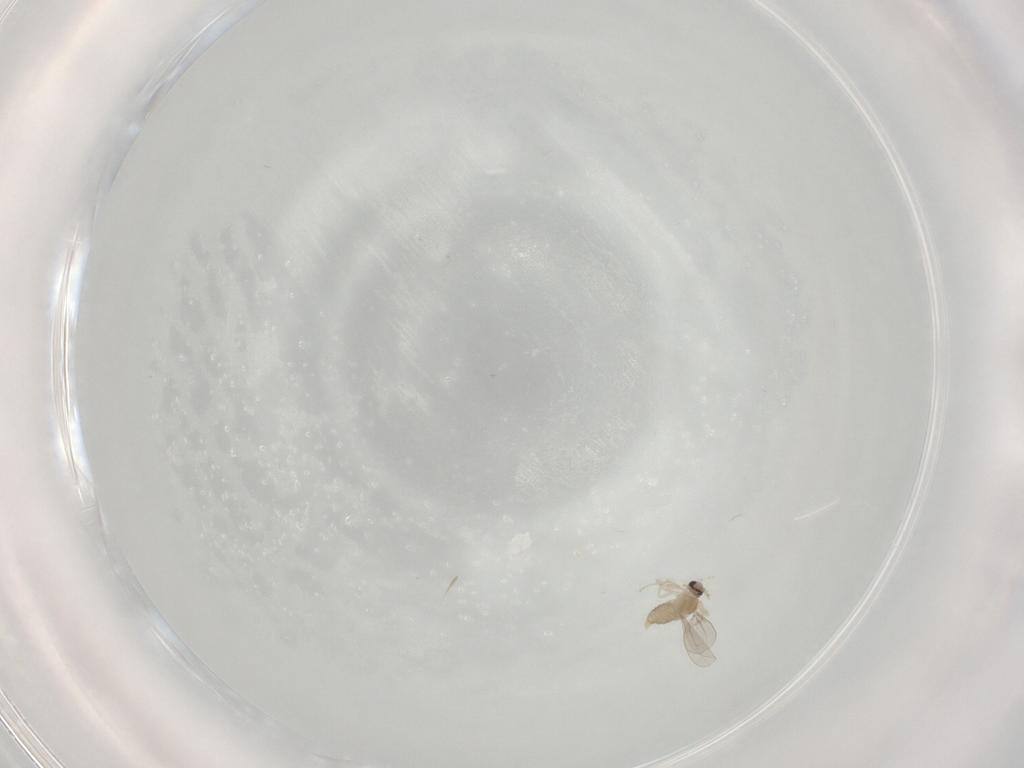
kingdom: Animalia
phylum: Arthropoda
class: Insecta
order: Diptera
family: Cecidomyiidae
